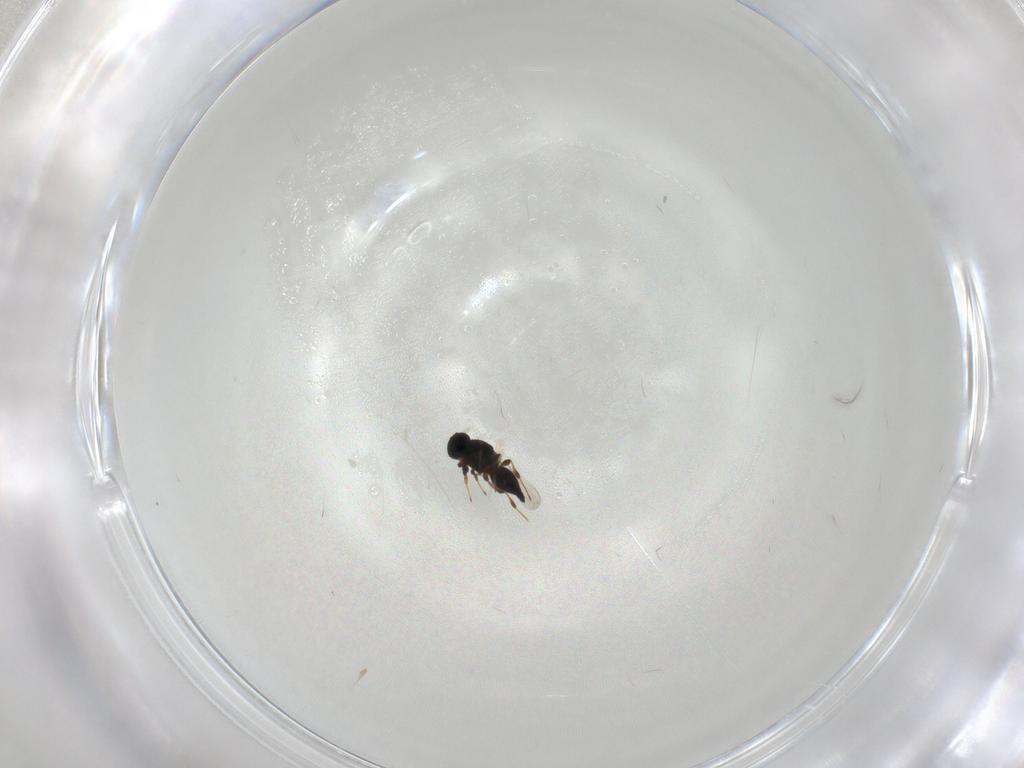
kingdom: Animalia
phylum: Arthropoda
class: Insecta
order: Hymenoptera
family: Platygastridae
